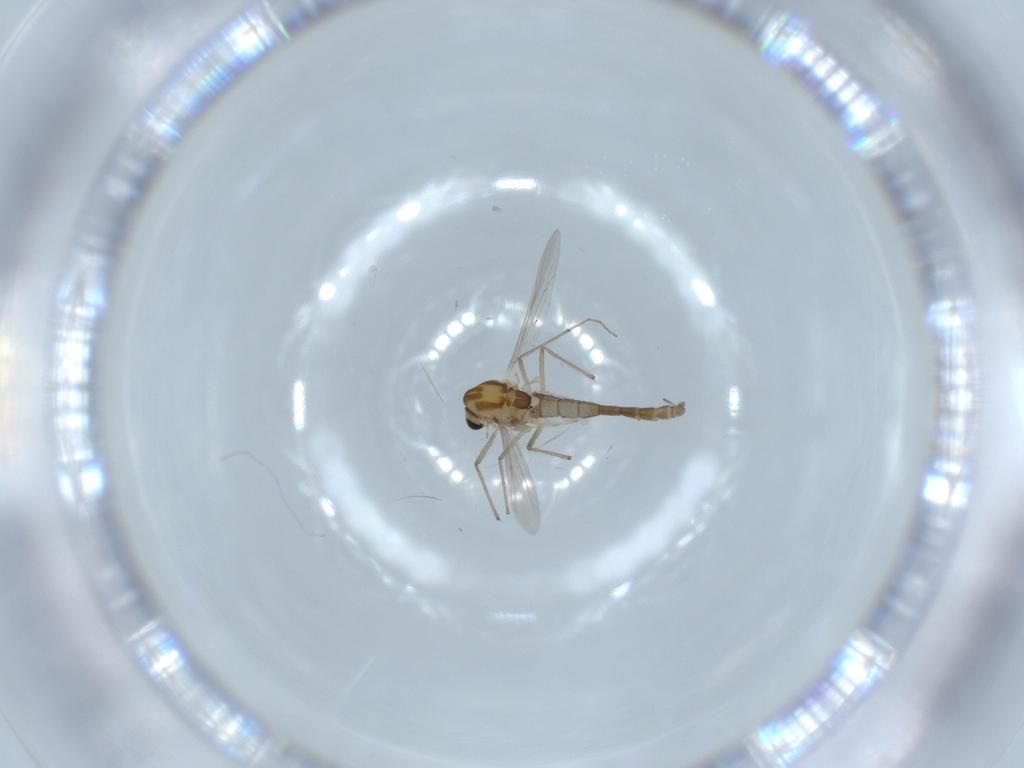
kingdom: Animalia
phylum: Arthropoda
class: Insecta
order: Diptera
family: Chironomidae
